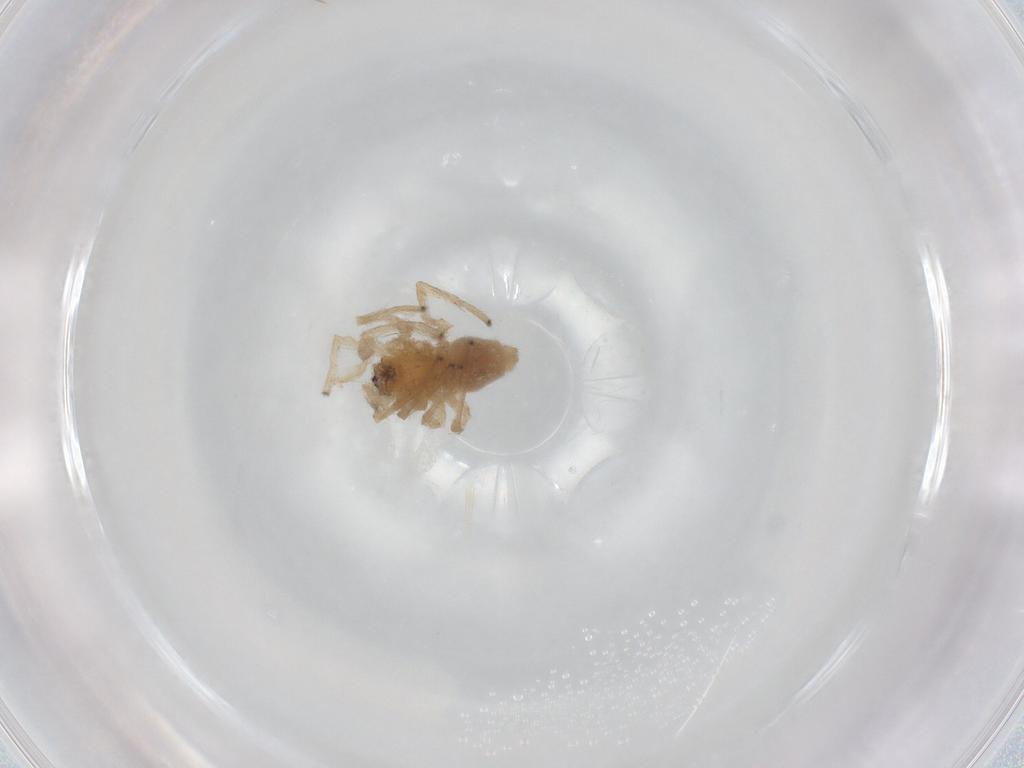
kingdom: Animalia
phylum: Arthropoda
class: Arachnida
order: Araneae
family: Cheiracanthiidae
